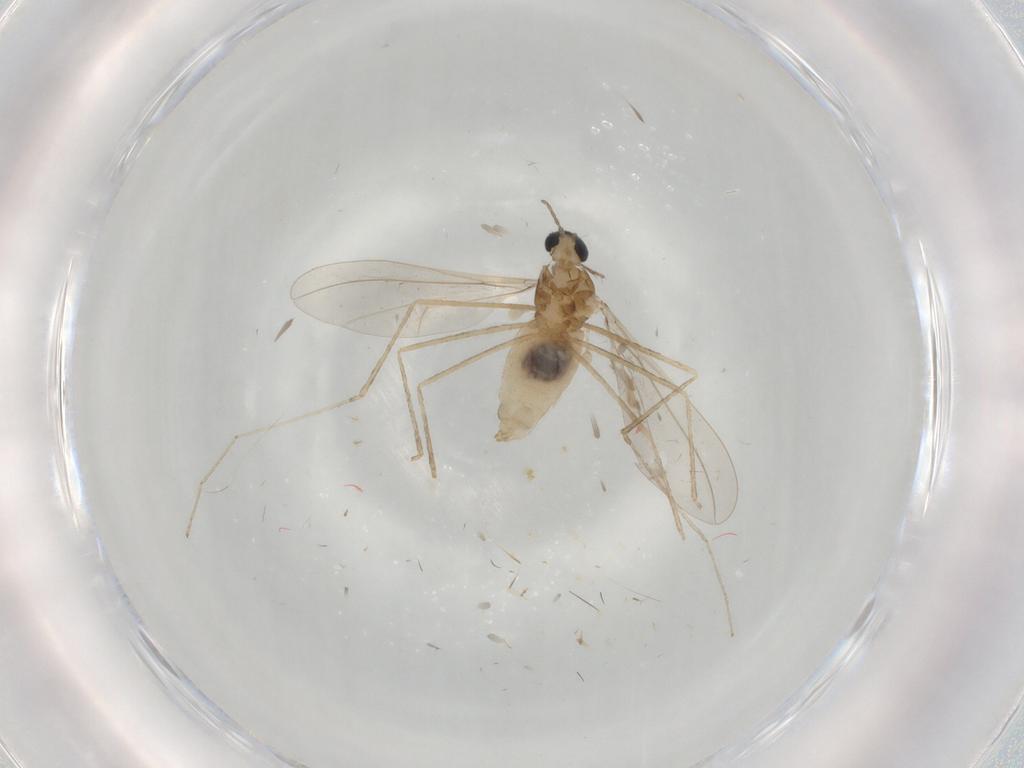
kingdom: Animalia
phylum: Arthropoda
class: Insecta
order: Diptera
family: Cecidomyiidae
